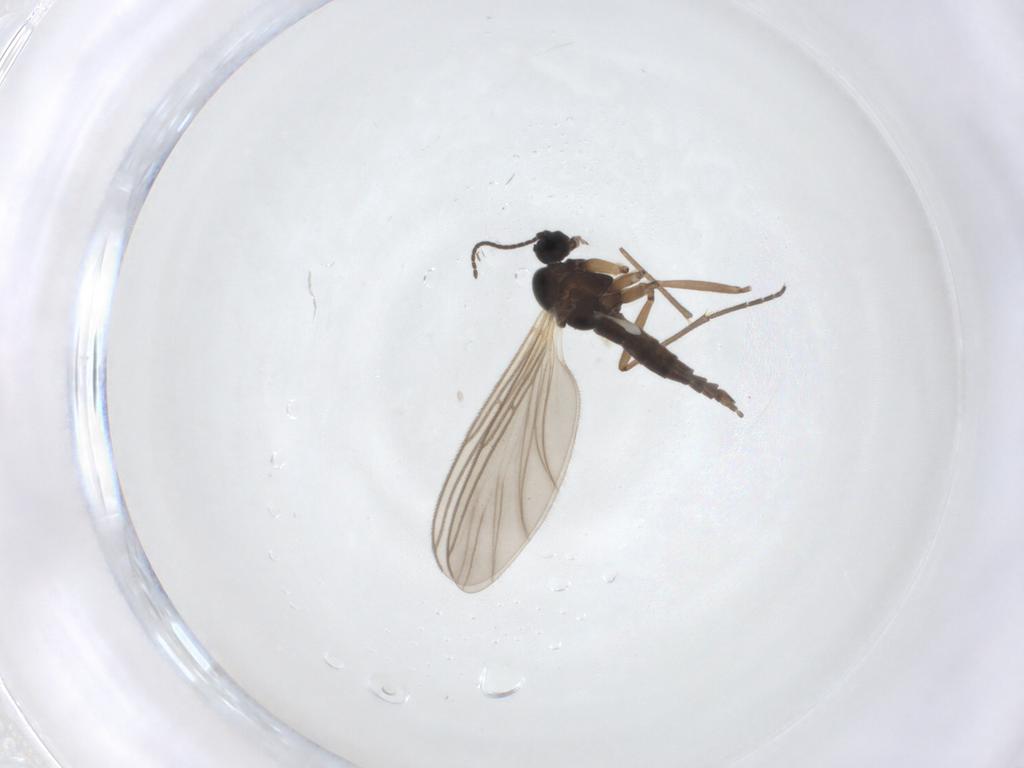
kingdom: Animalia
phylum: Arthropoda
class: Insecta
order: Diptera
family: Sciaridae
